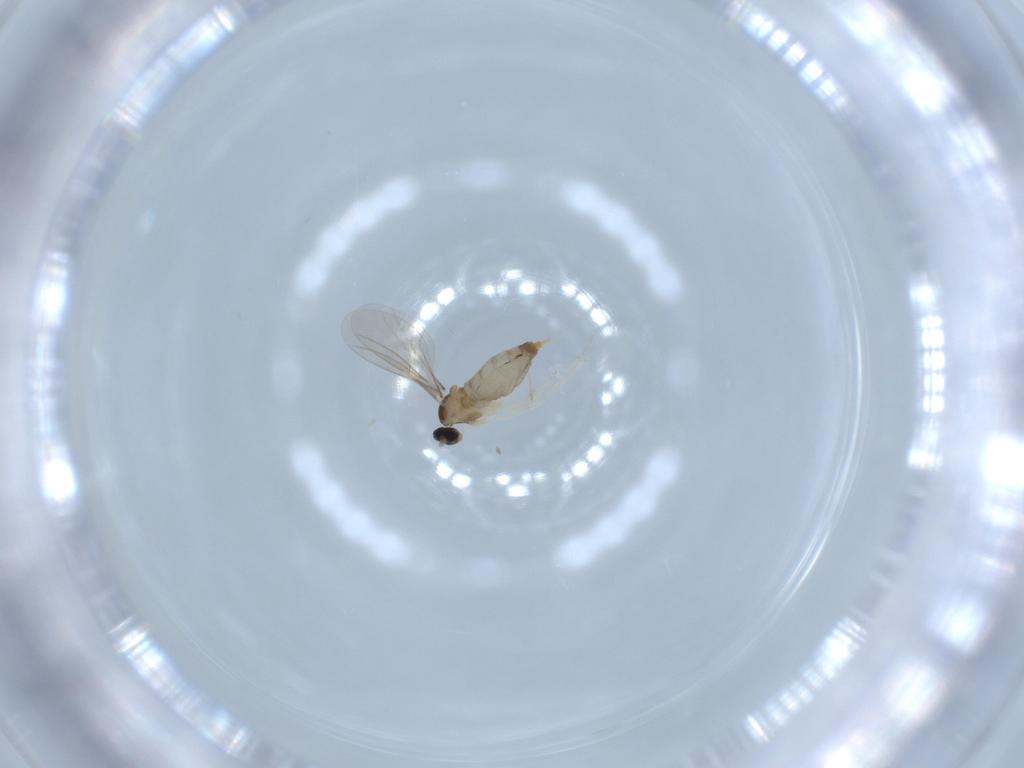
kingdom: Animalia
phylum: Arthropoda
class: Insecta
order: Diptera
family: Chironomidae
